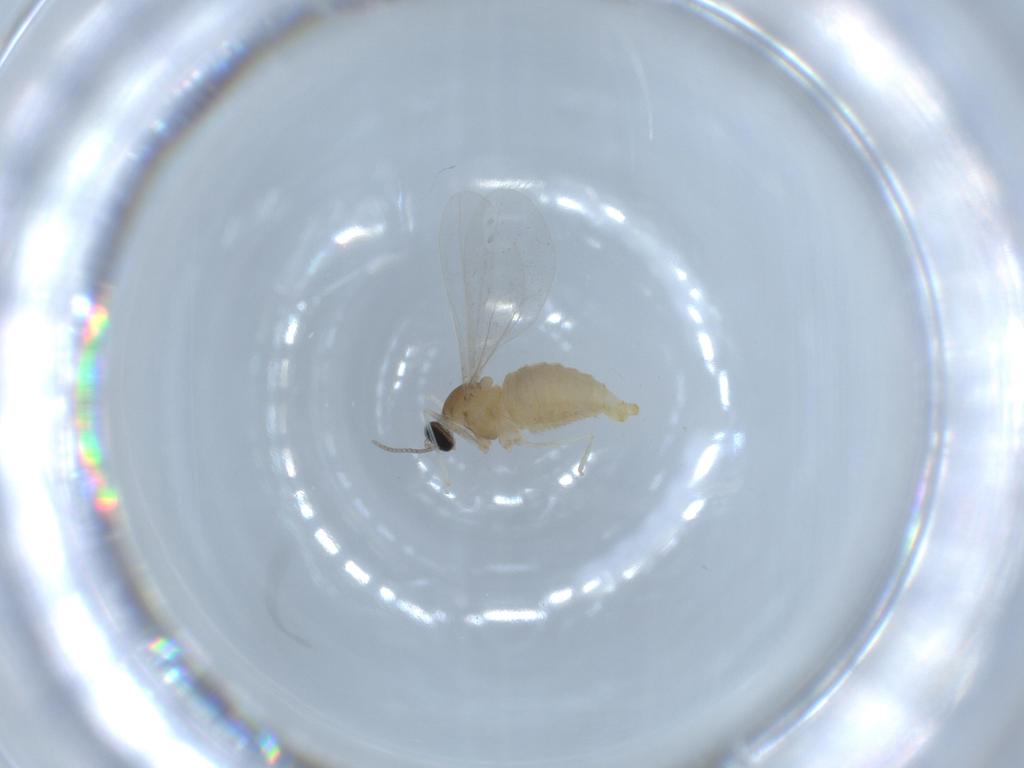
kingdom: Animalia
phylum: Arthropoda
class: Insecta
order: Diptera
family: Cecidomyiidae
